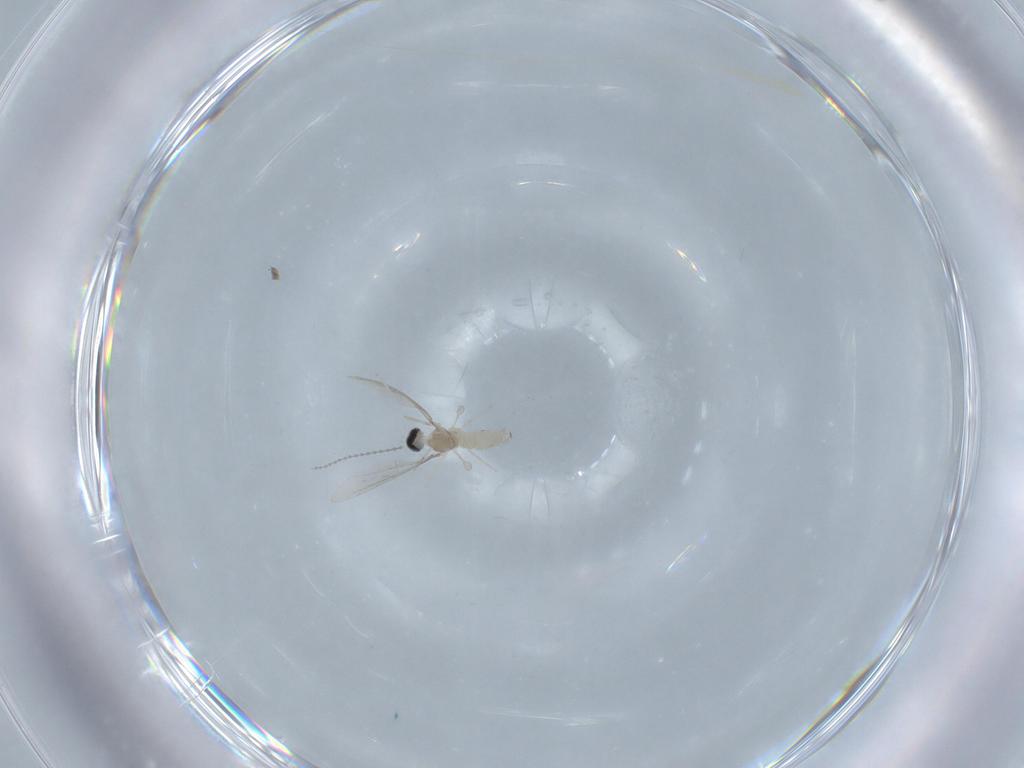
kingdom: Animalia
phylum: Arthropoda
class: Insecta
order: Diptera
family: Cecidomyiidae
